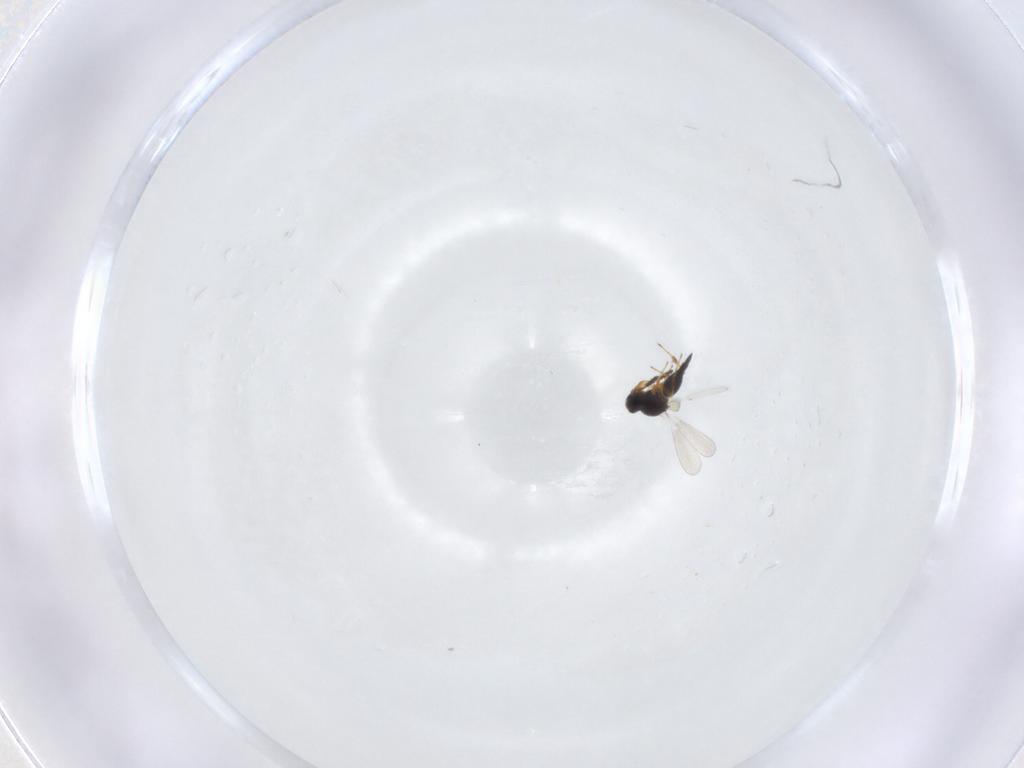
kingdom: Animalia
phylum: Arthropoda
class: Insecta
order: Hymenoptera
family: Platygastridae
